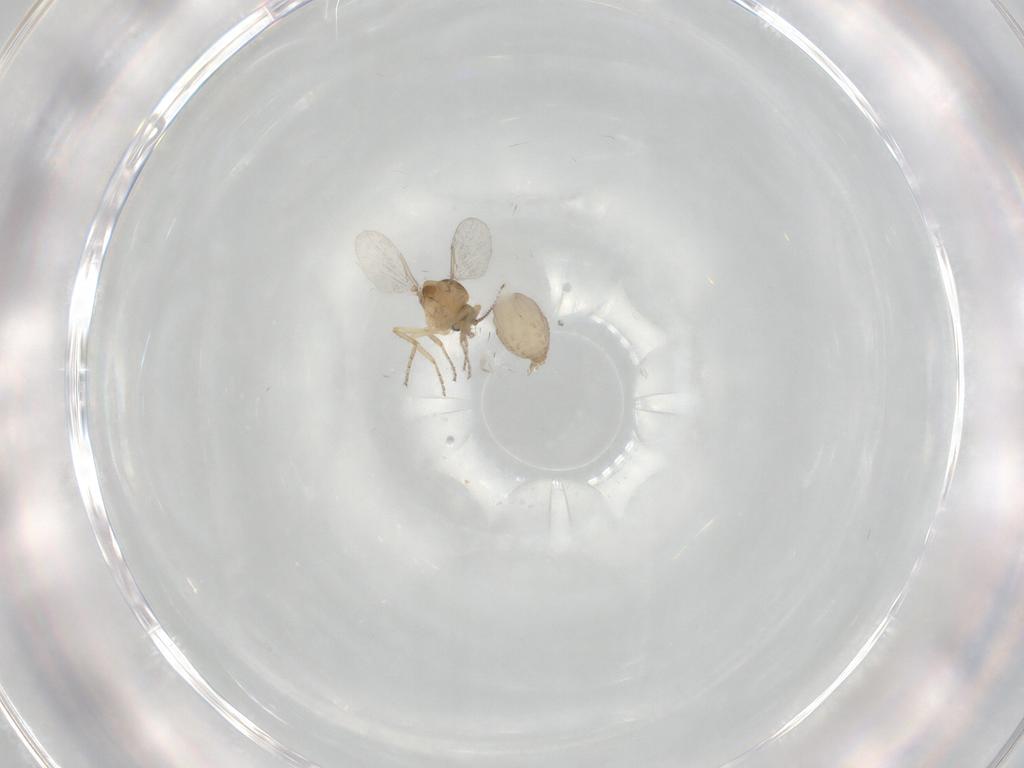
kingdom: Animalia
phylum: Arthropoda
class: Insecta
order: Diptera
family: Ceratopogonidae
